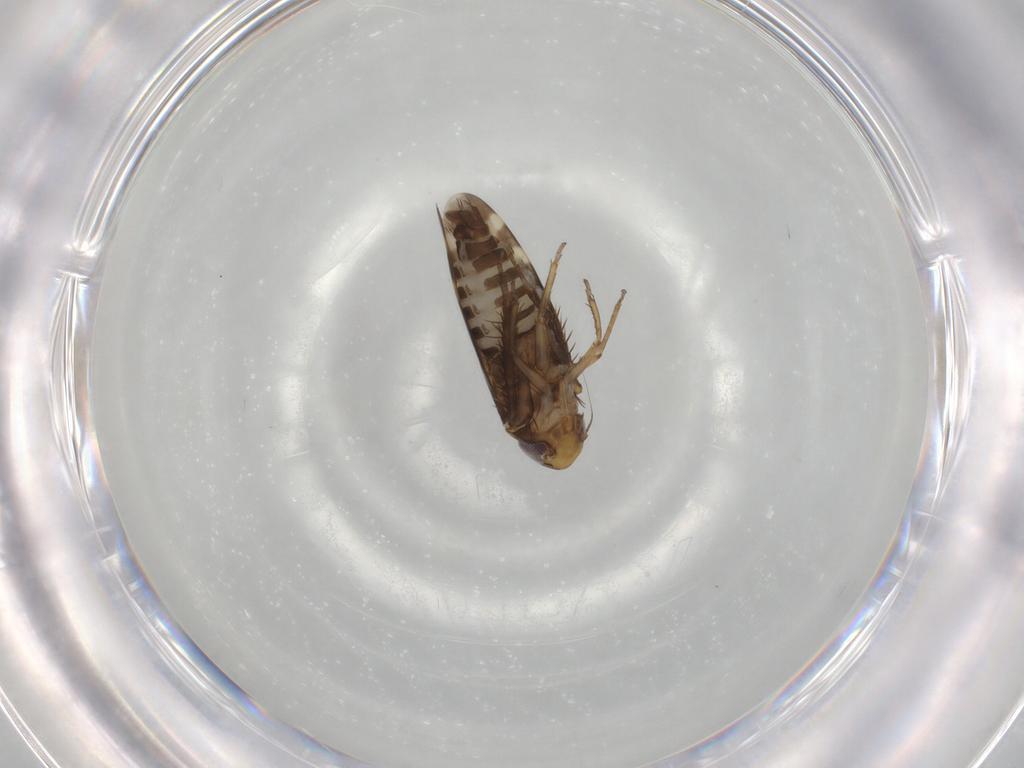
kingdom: Animalia
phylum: Arthropoda
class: Insecta
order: Hemiptera
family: Cicadellidae
